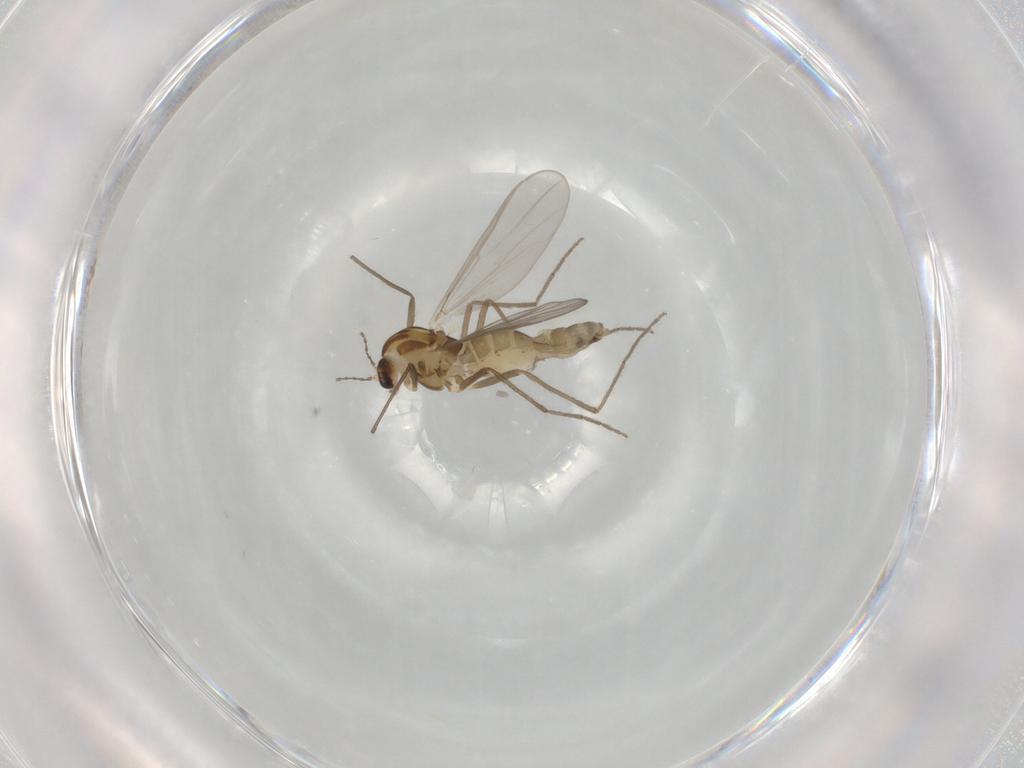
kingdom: Animalia
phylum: Arthropoda
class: Insecta
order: Diptera
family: Chironomidae
